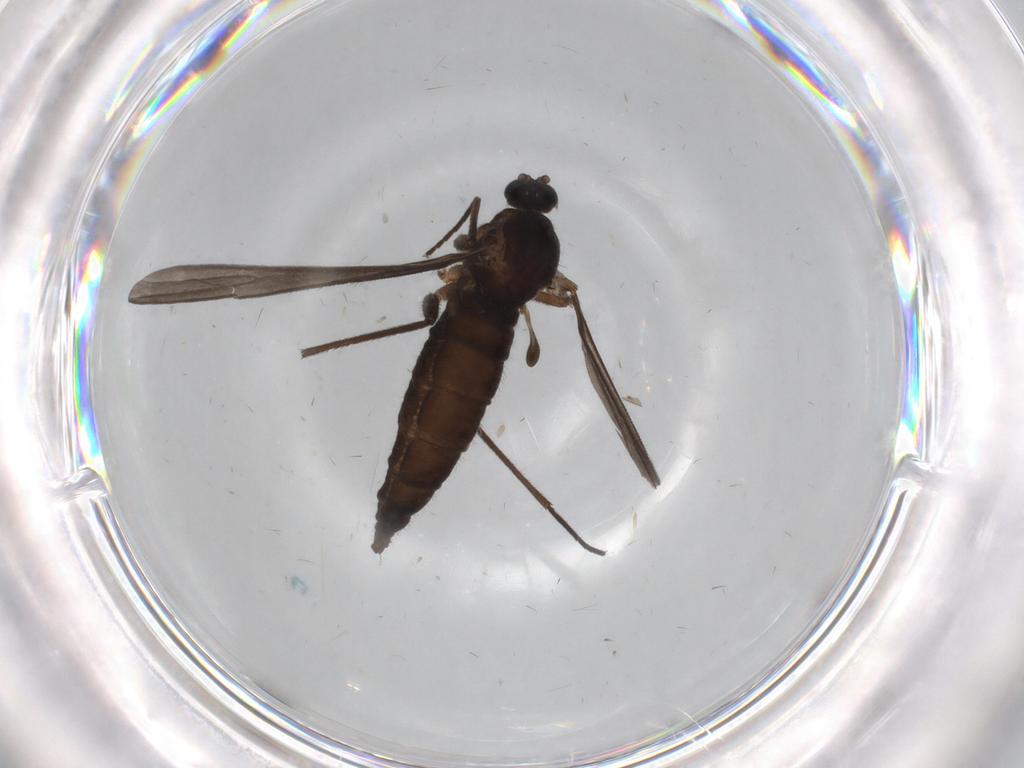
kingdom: Animalia
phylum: Arthropoda
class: Insecta
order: Diptera
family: Sciaridae
